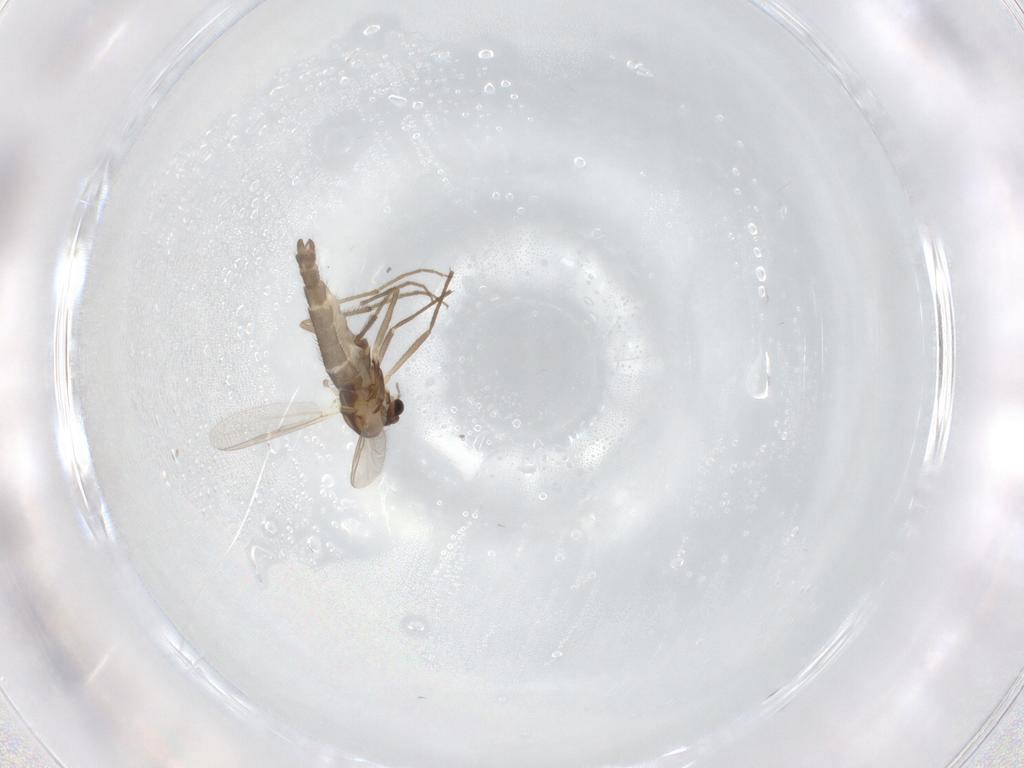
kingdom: Animalia
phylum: Arthropoda
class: Insecta
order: Diptera
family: Chironomidae
